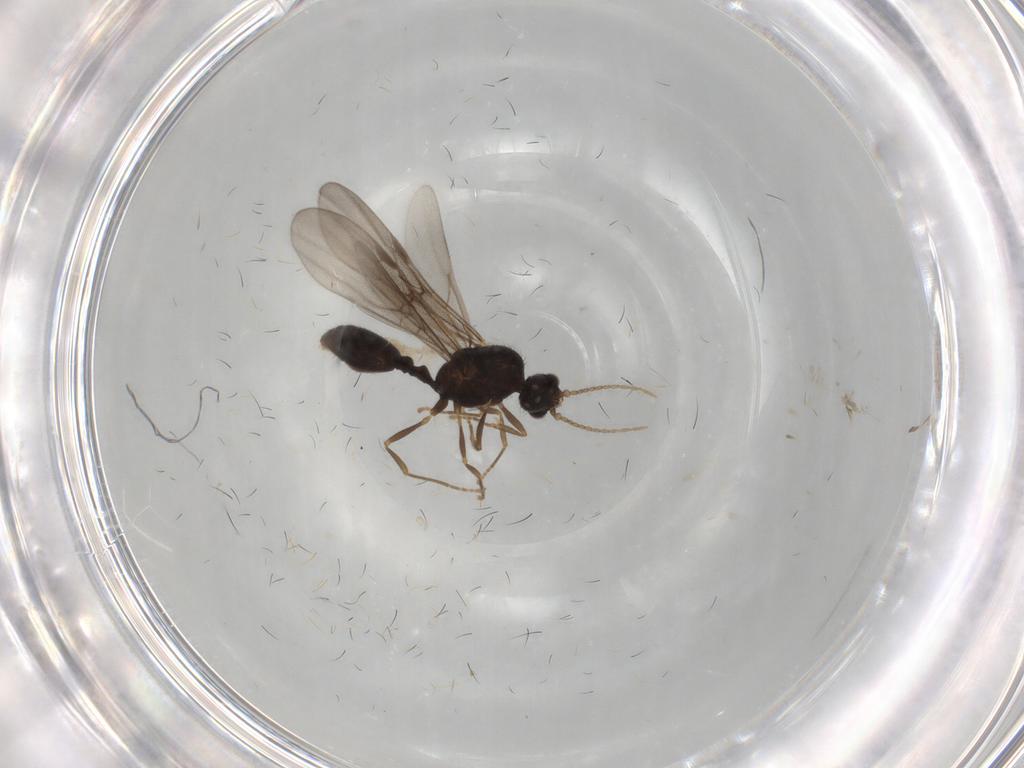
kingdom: Animalia
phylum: Arthropoda
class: Insecta
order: Hymenoptera
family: Formicidae
